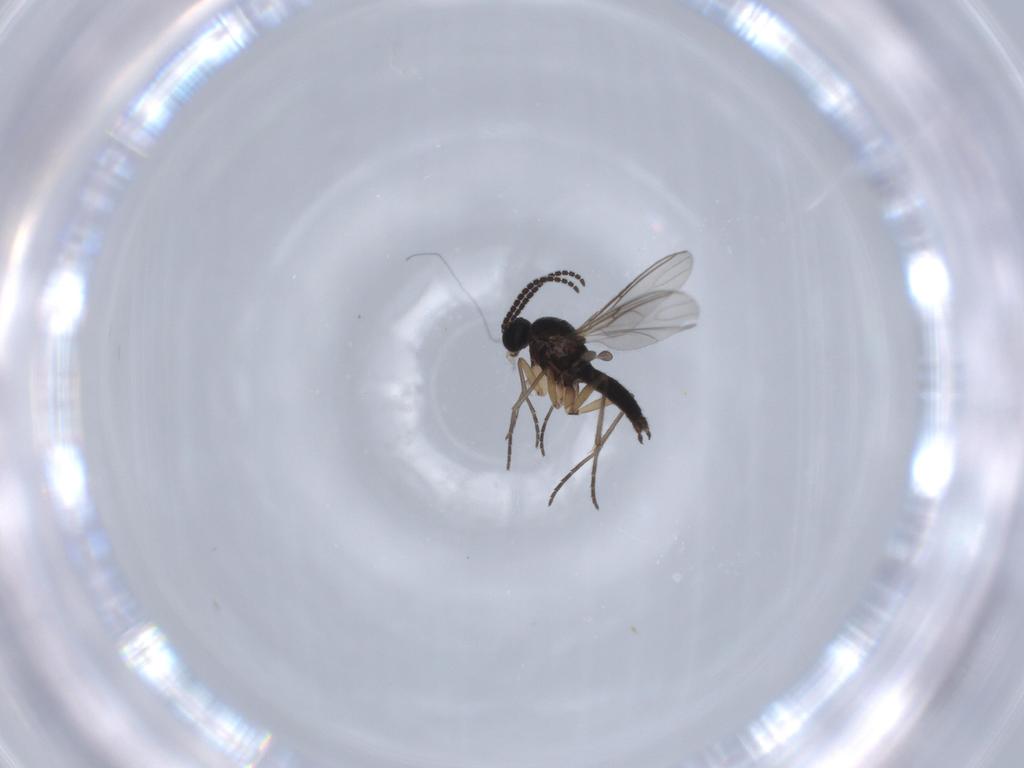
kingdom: Animalia
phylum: Arthropoda
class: Insecta
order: Diptera
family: Sciaridae
